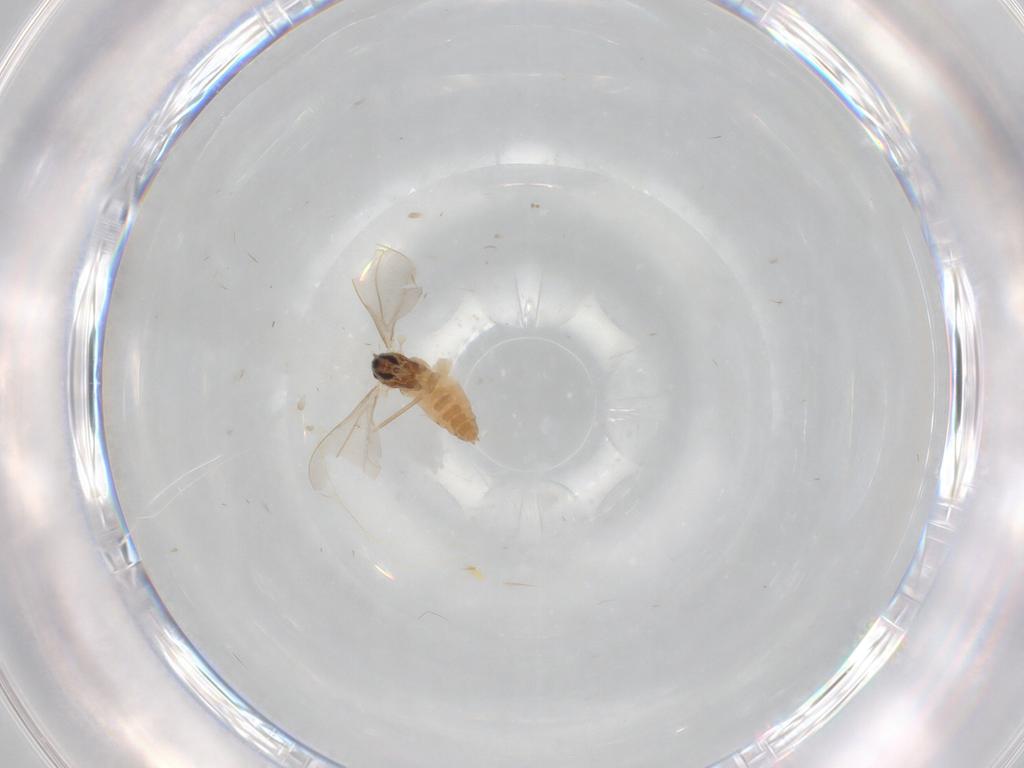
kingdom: Animalia
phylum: Arthropoda
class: Insecta
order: Diptera
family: Cecidomyiidae
